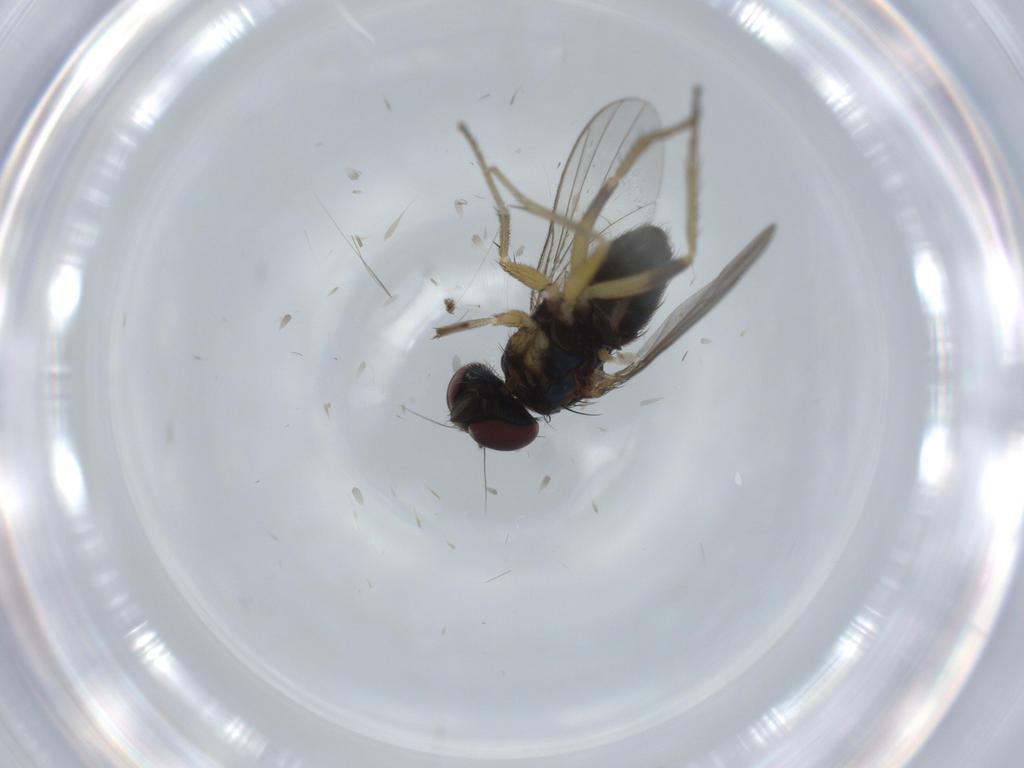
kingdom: Animalia
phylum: Arthropoda
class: Insecta
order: Diptera
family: Dolichopodidae
